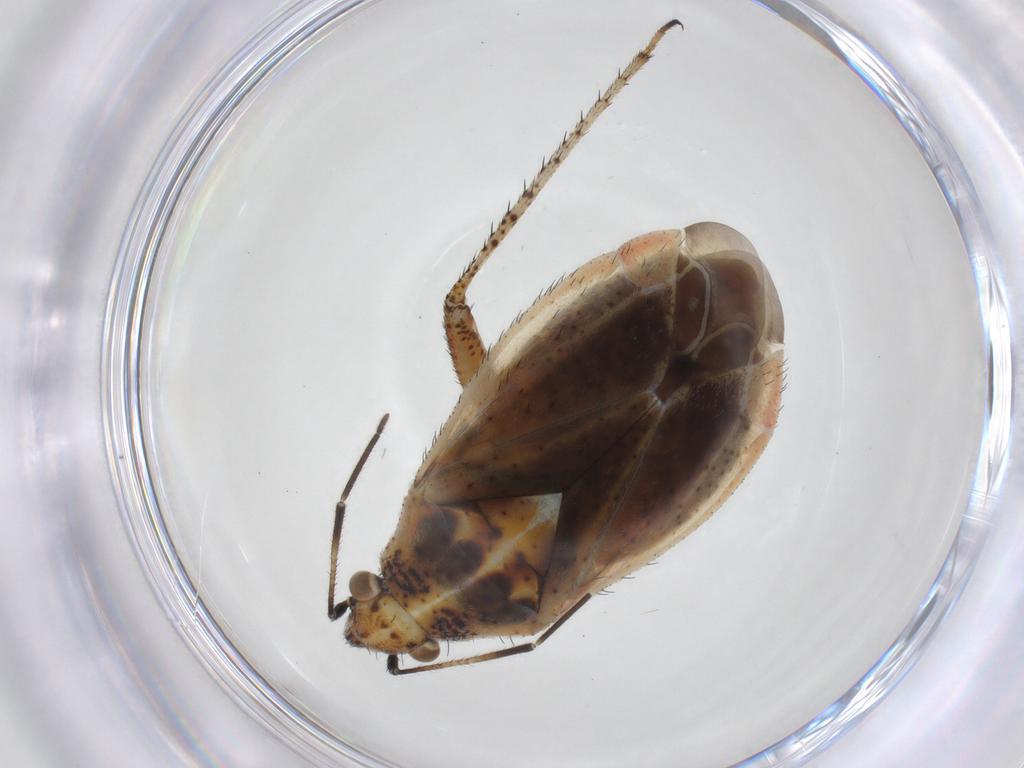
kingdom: Animalia
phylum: Arthropoda
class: Insecta
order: Hemiptera
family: Miridae
